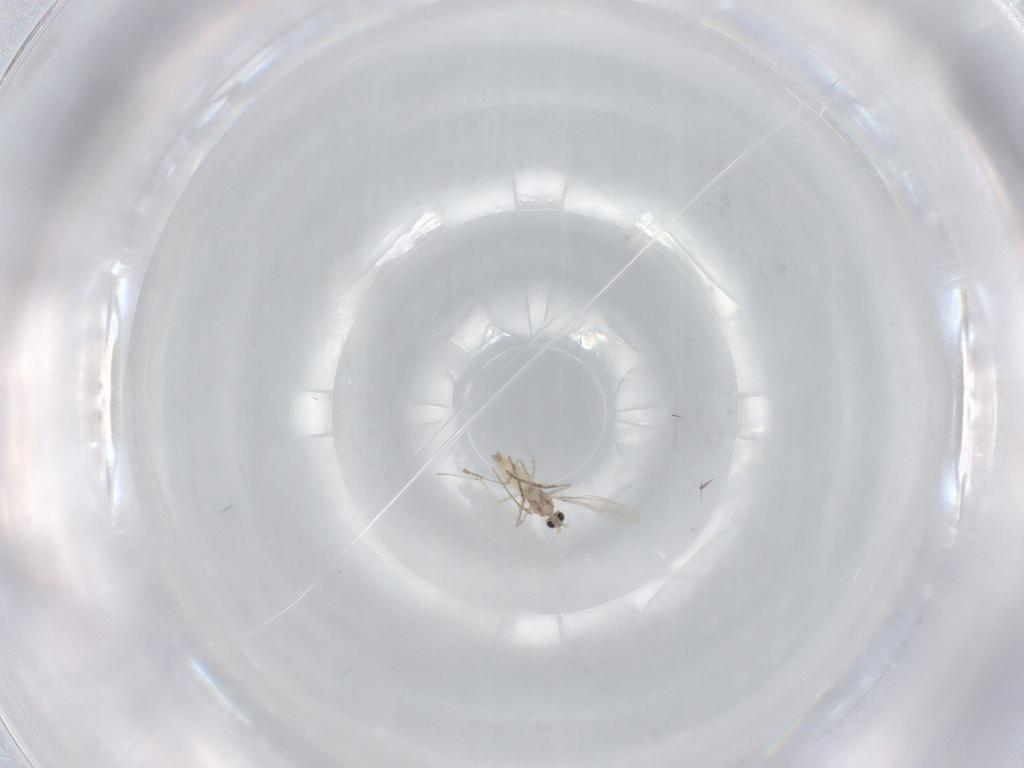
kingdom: Animalia
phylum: Arthropoda
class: Insecta
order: Diptera
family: Cecidomyiidae
